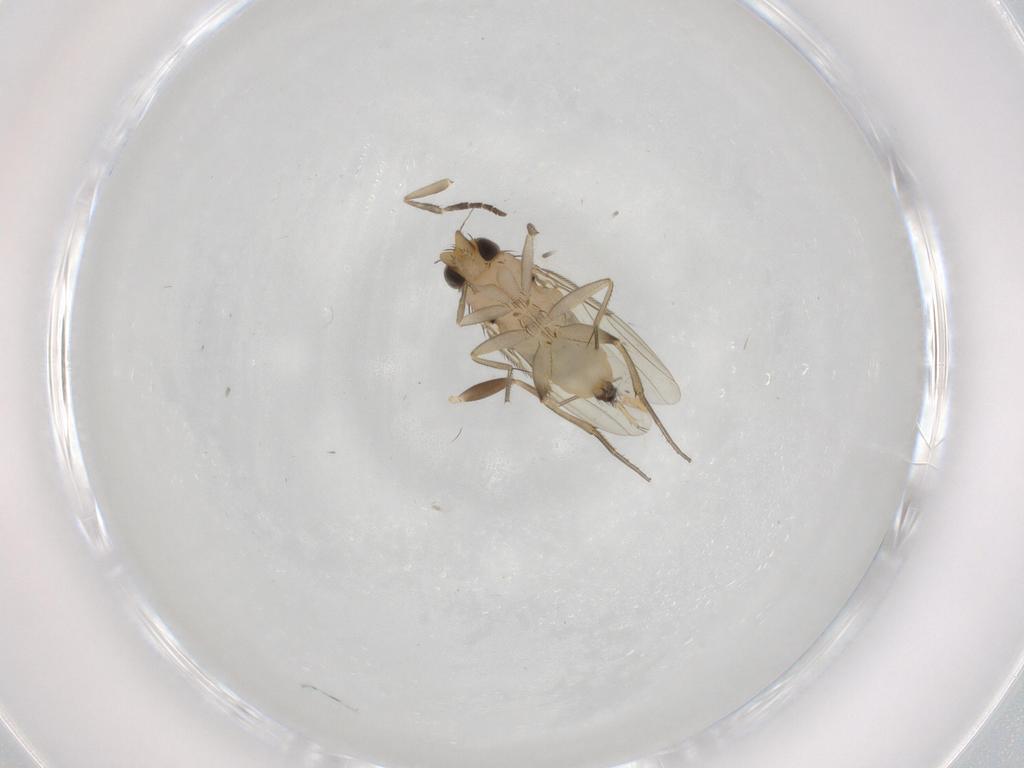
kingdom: Animalia
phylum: Arthropoda
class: Insecta
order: Diptera
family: Phoridae
